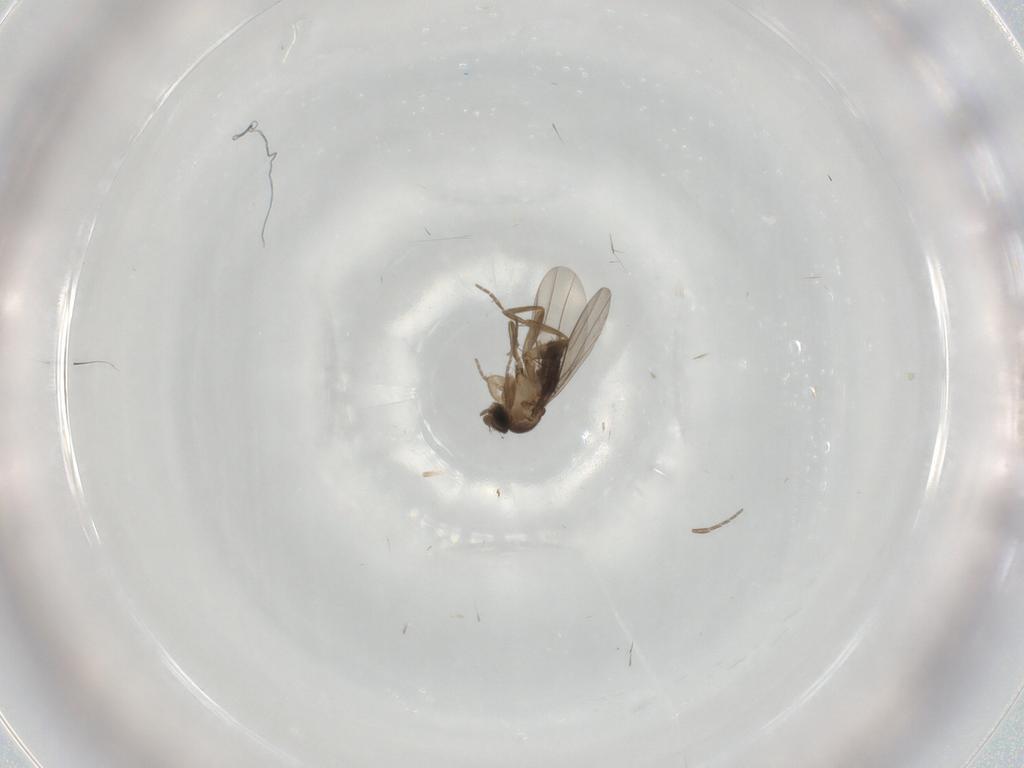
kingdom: Animalia
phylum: Arthropoda
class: Insecta
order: Diptera
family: Phoridae
